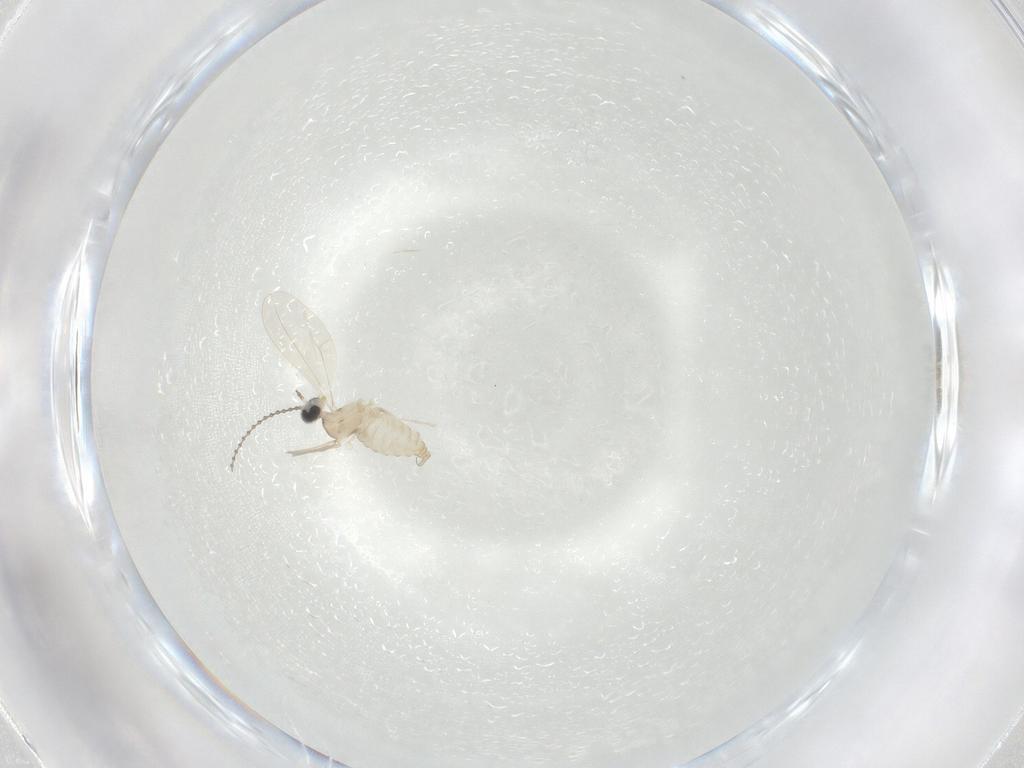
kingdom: Animalia
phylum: Arthropoda
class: Insecta
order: Diptera
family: Cecidomyiidae
